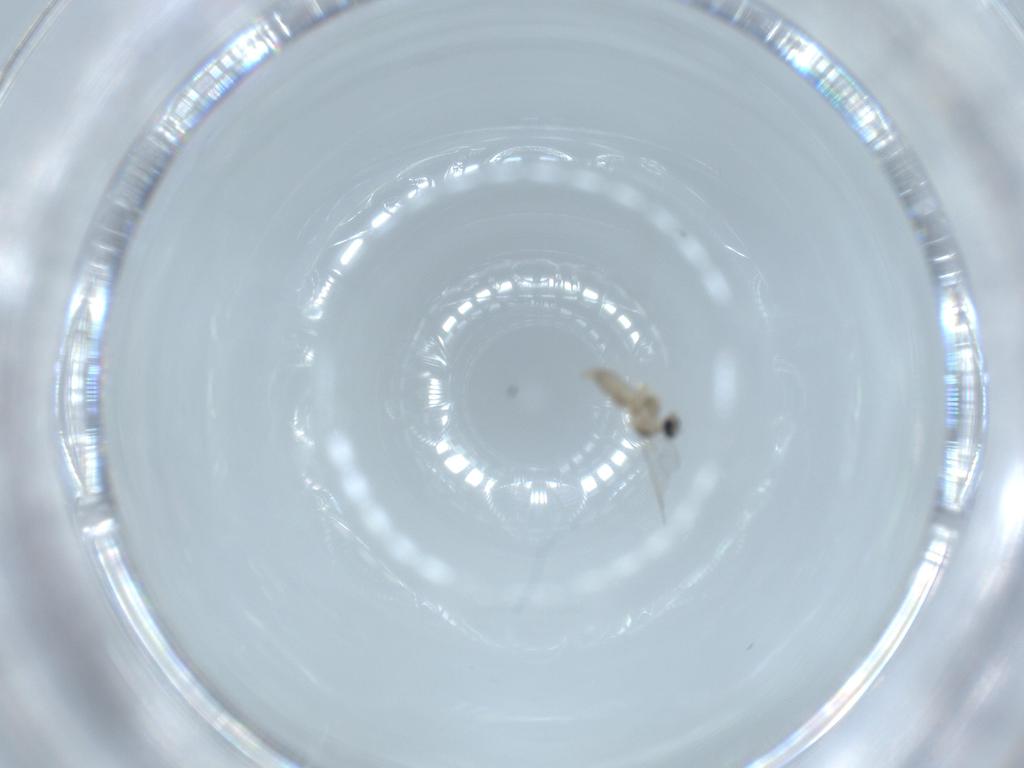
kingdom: Animalia
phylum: Arthropoda
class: Insecta
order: Diptera
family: Cecidomyiidae
